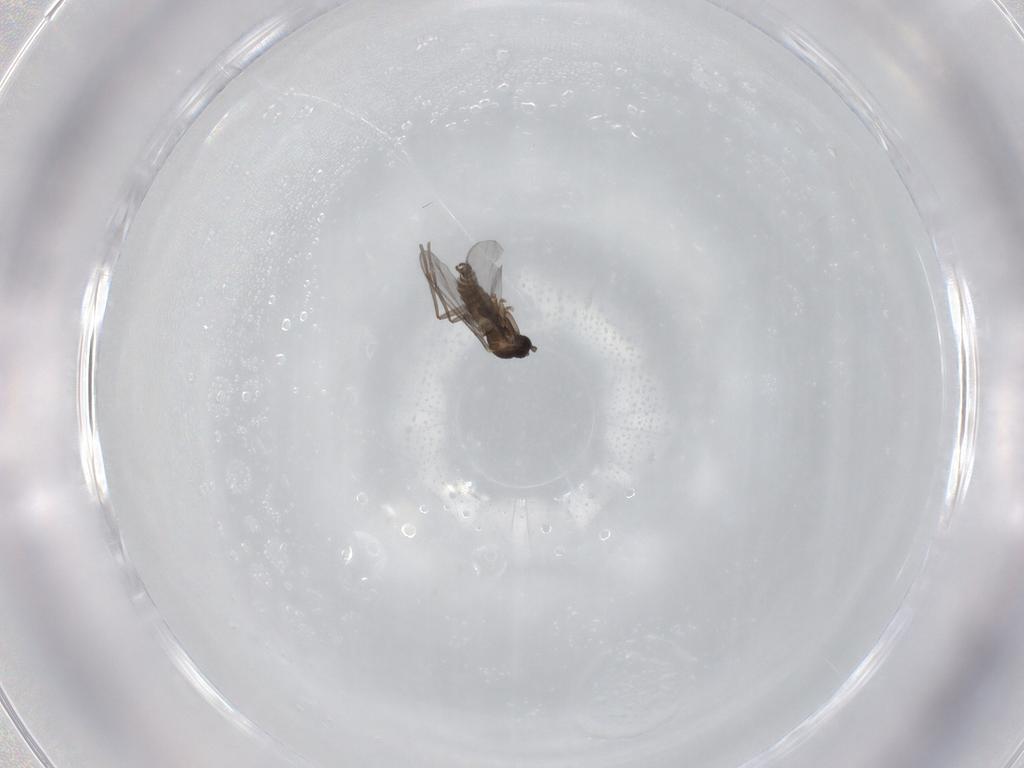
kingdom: Animalia
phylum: Arthropoda
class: Insecta
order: Diptera
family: Sciaridae
